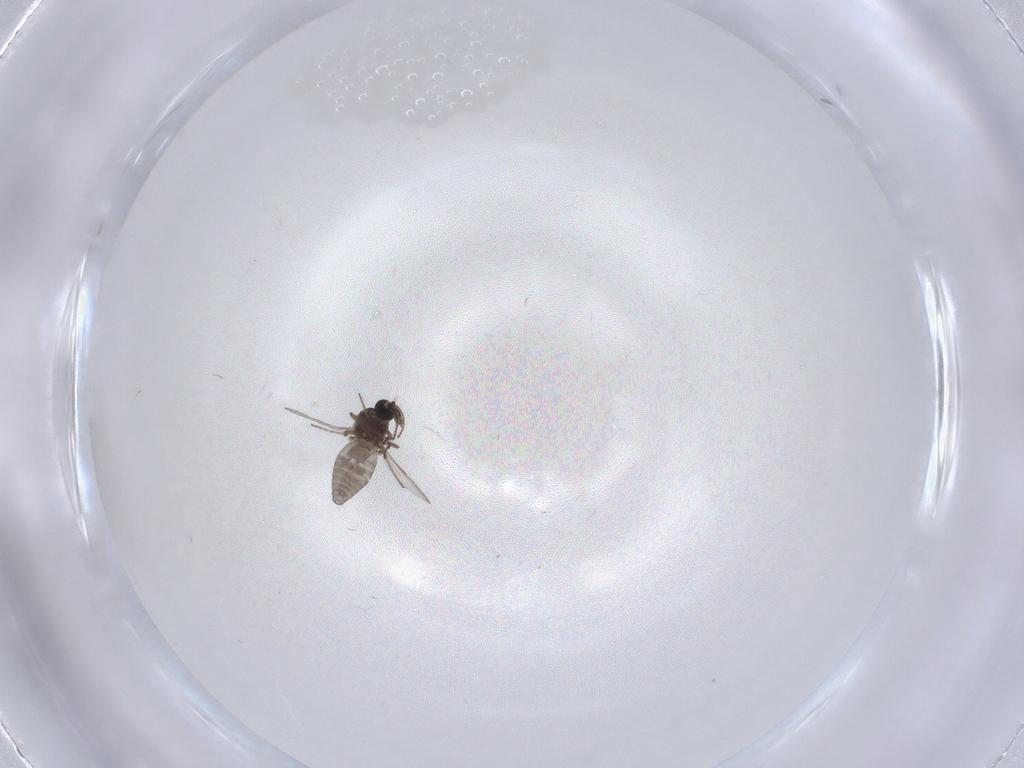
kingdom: Animalia
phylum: Arthropoda
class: Insecta
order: Diptera
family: Ceratopogonidae
